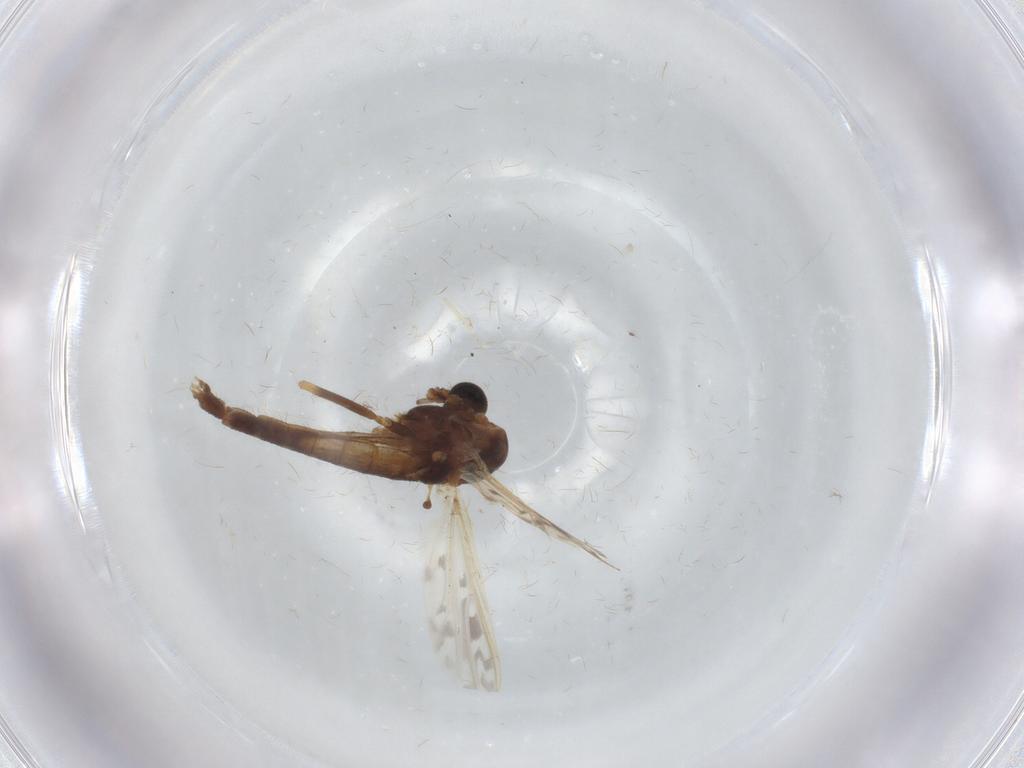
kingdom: Animalia
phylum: Arthropoda
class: Insecta
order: Diptera
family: Chironomidae
